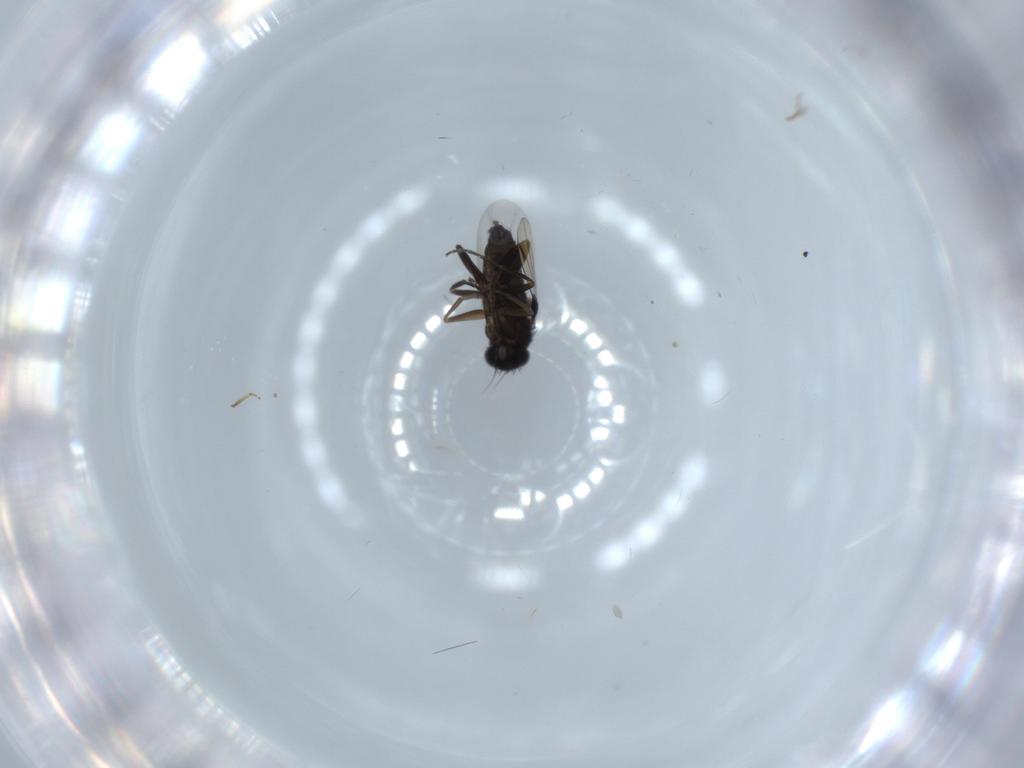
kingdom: Animalia
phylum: Arthropoda
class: Insecta
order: Diptera
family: Phoridae
